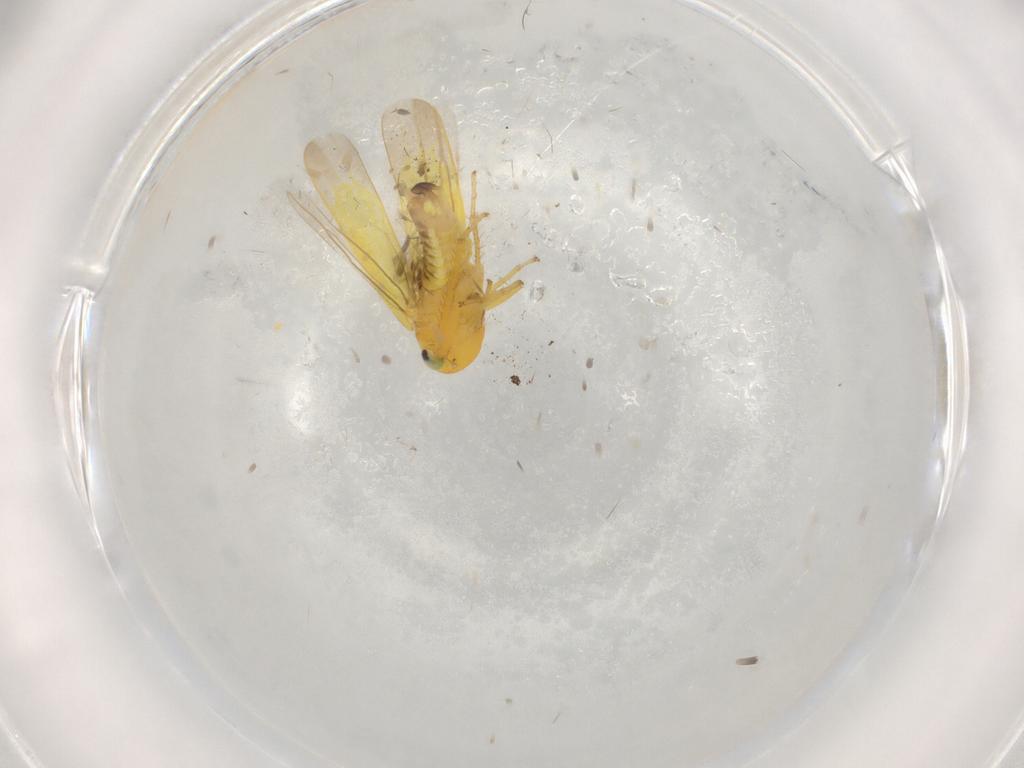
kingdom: Animalia
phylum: Arthropoda
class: Insecta
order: Hemiptera
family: Cicadellidae
